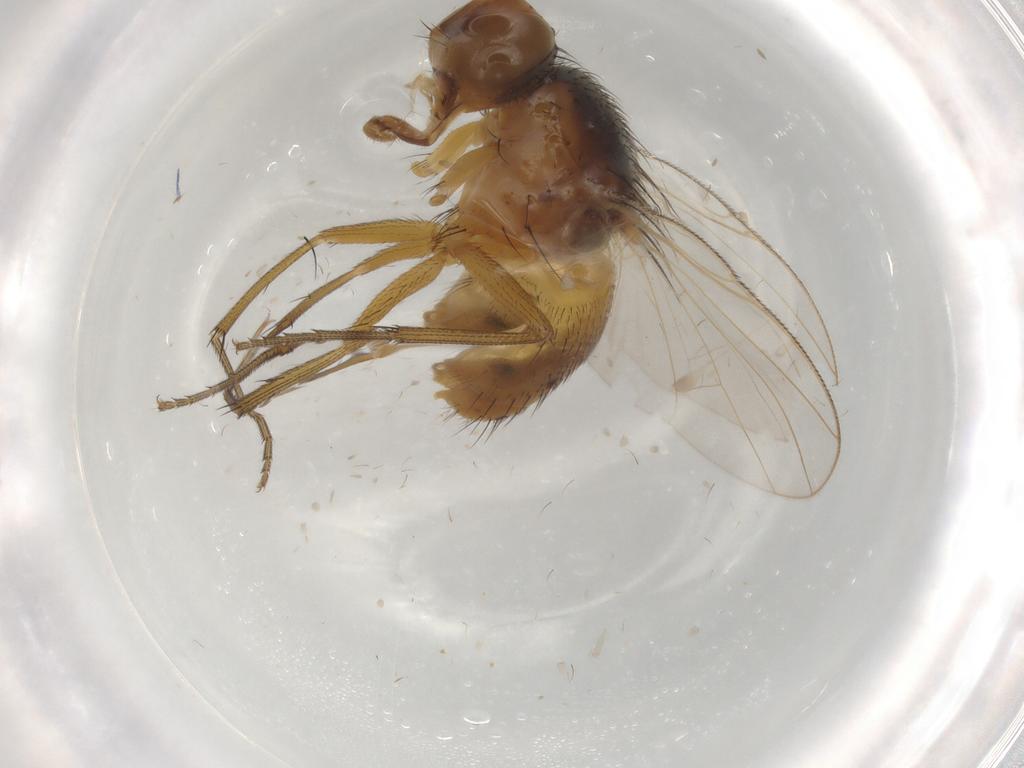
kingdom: Animalia
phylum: Arthropoda
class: Insecta
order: Diptera
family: Muscidae
